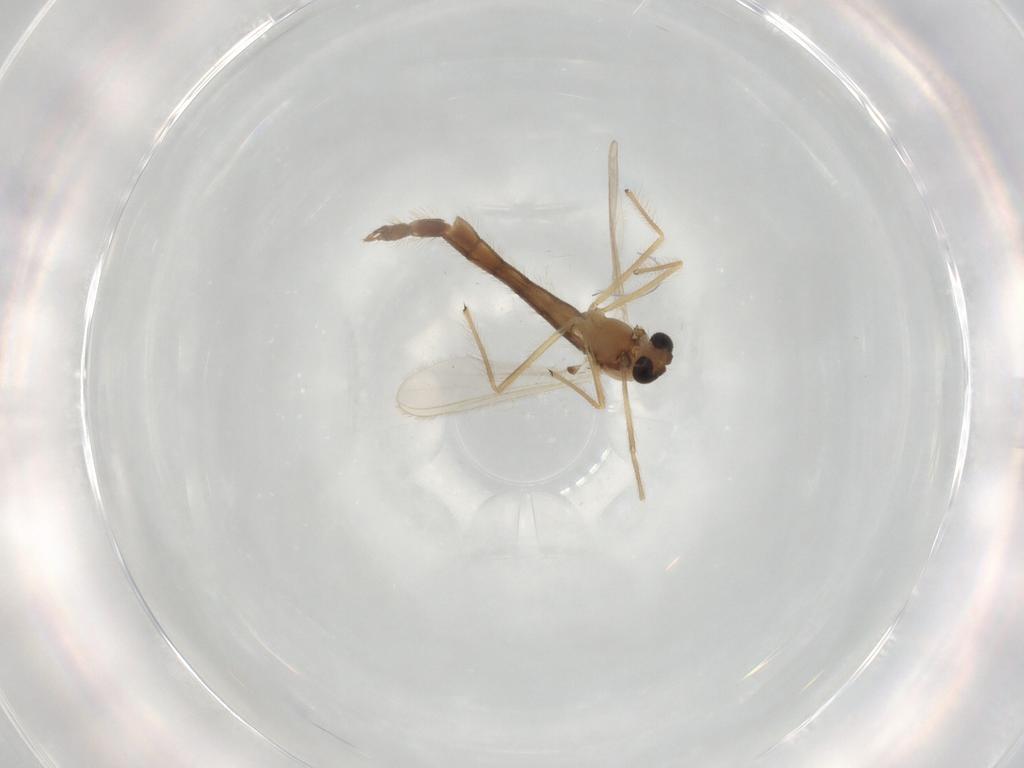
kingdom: Animalia
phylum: Arthropoda
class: Insecta
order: Diptera
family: Chironomidae
